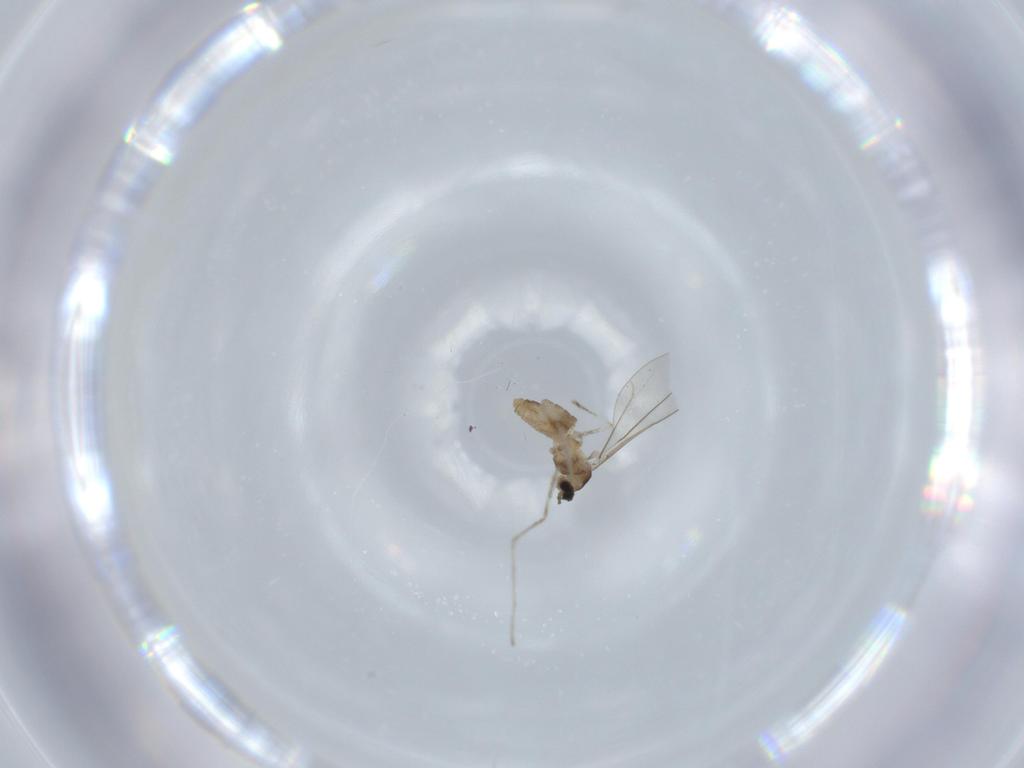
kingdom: Animalia
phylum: Arthropoda
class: Insecta
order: Diptera
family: Cecidomyiidae
